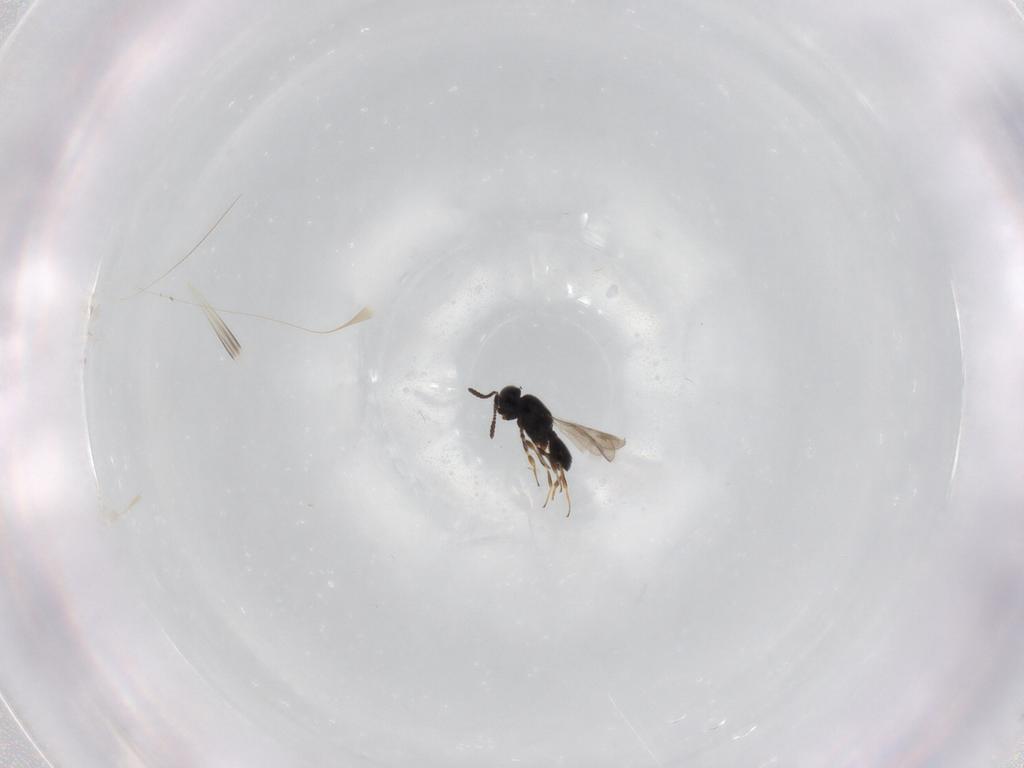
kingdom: Animalia
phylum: Arthropoda
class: Insecta
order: Hymenoptera
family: Scelionidae
